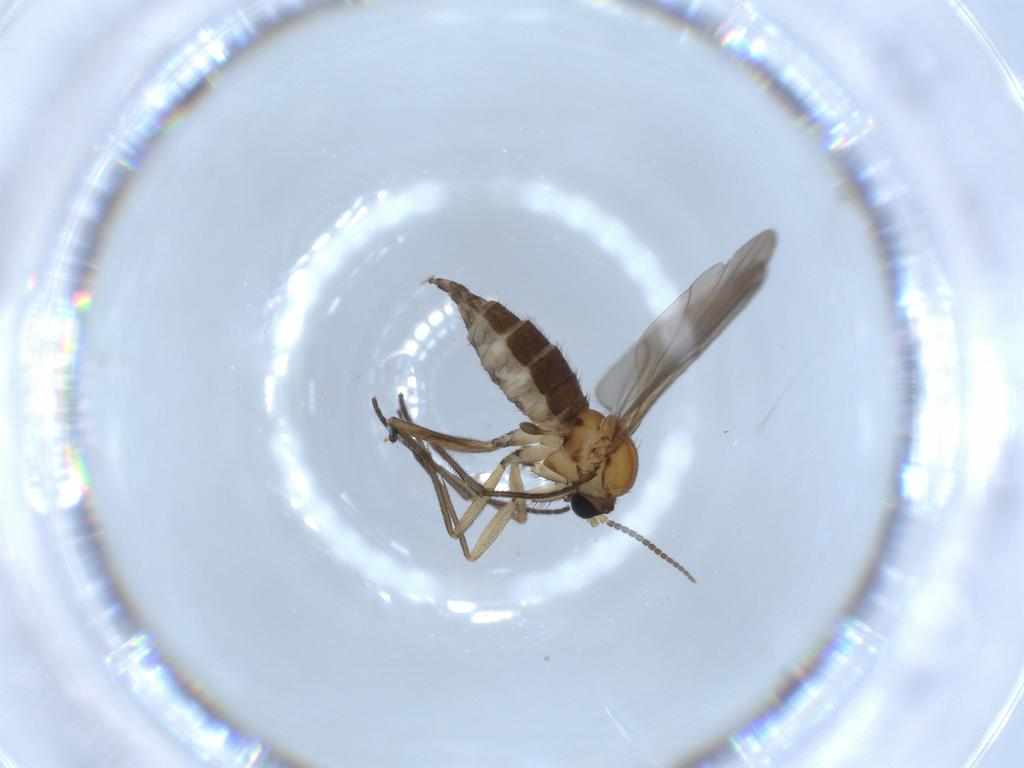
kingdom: Animalia
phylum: Arthropoda
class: Insecta
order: Diptera
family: Sciaridae
